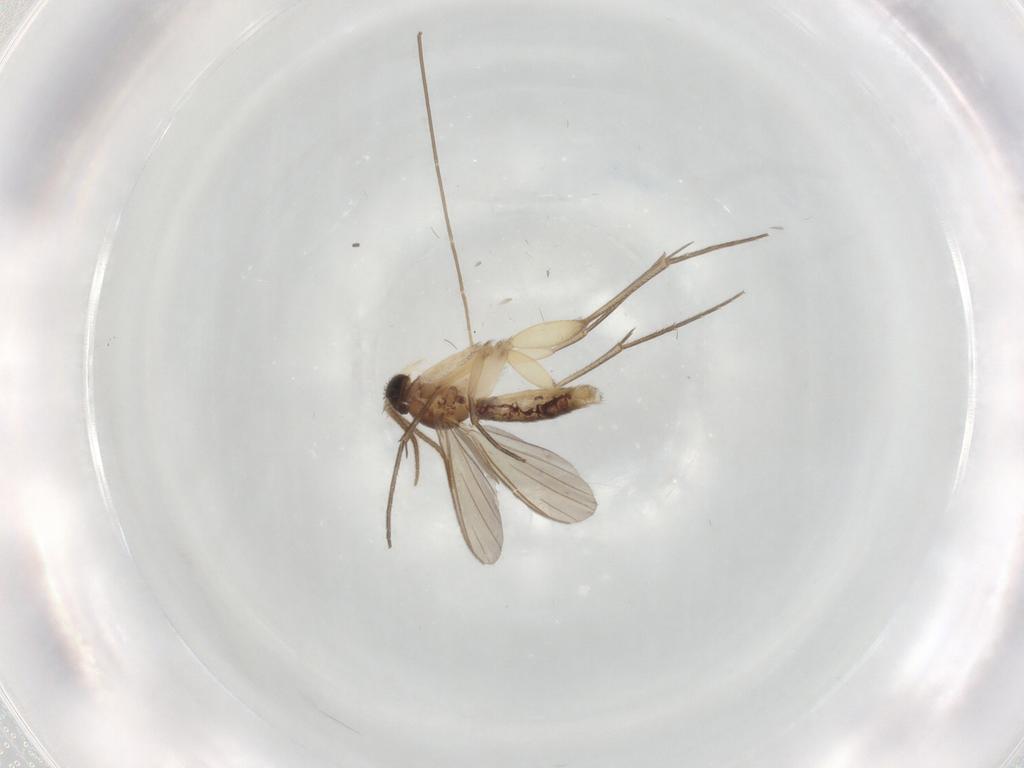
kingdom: Animalia
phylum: Arthropoda
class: Insecta
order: Diptera
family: Mycetophilidae
